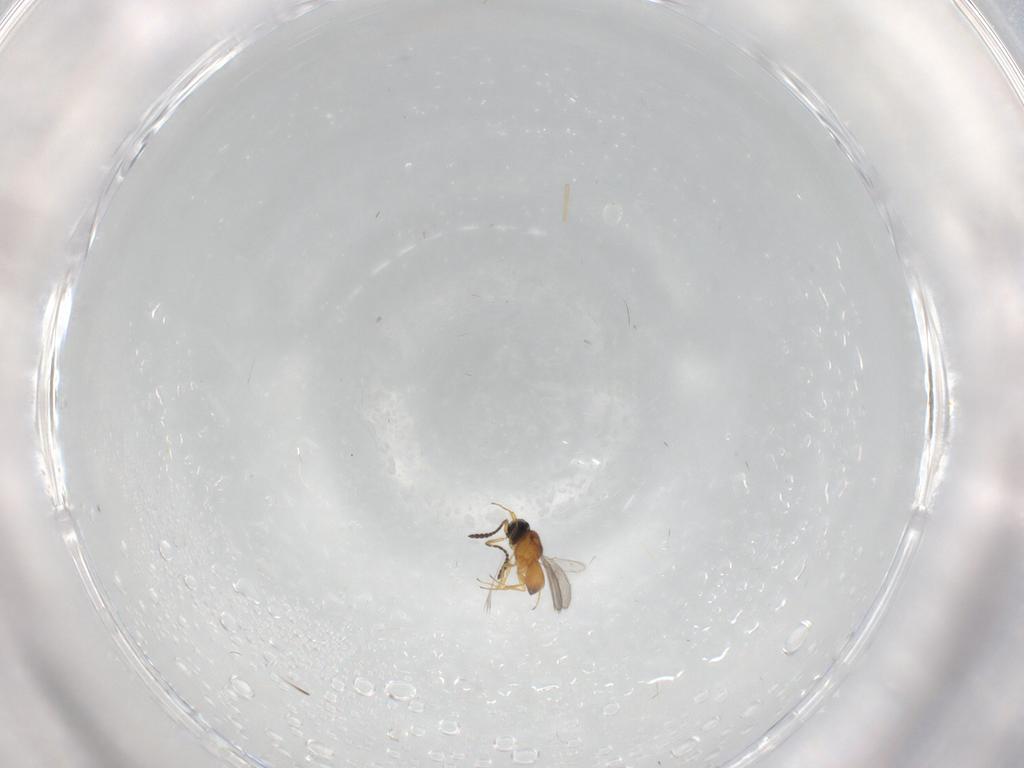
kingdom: Animalia
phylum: Arthropoda
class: Insecta
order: Hymenoptera
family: Scelionidae
